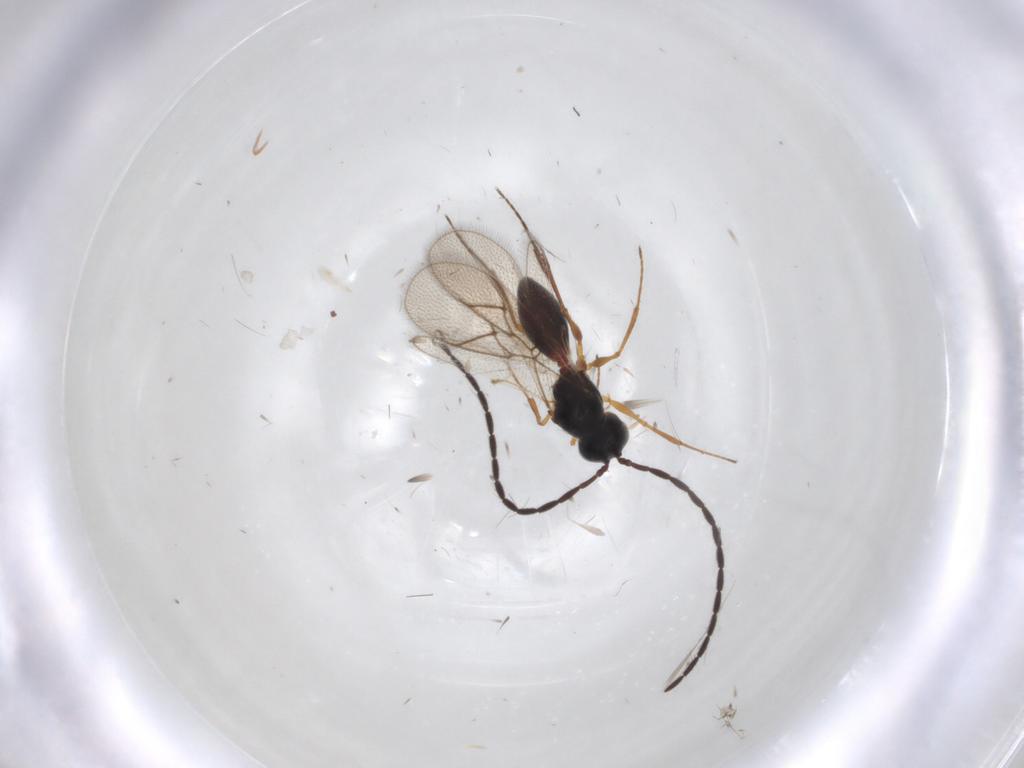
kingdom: Animalia
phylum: Arthropoda
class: Insecta
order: Hymenoptera
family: Figitidae
